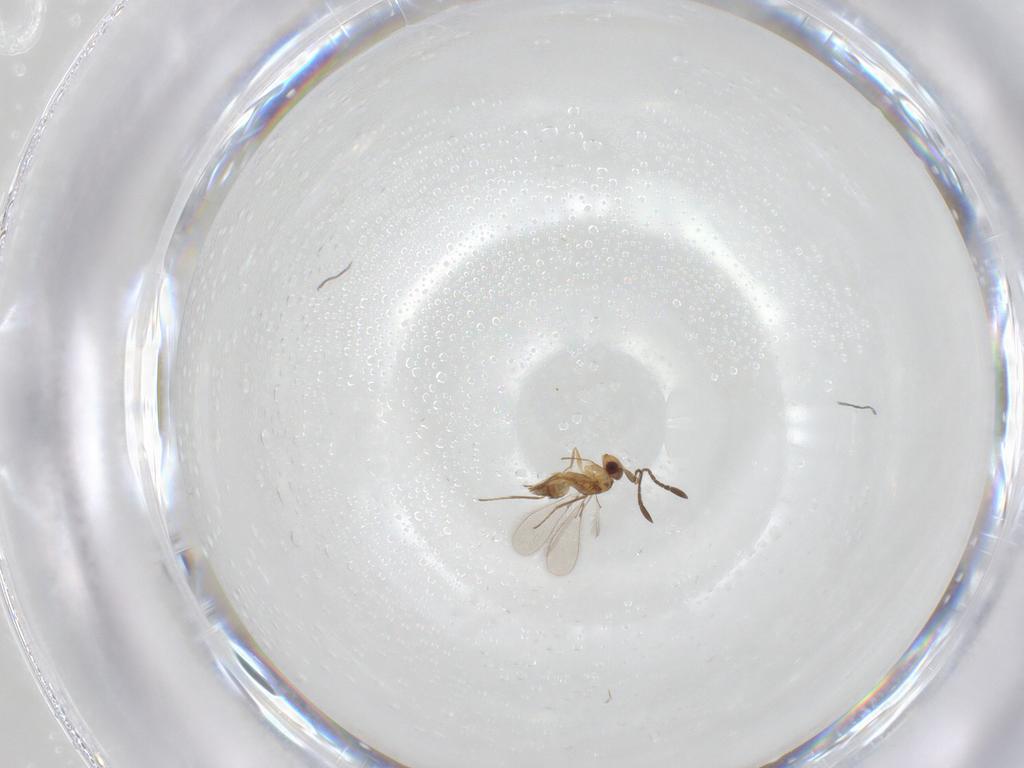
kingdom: Animalia
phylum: Arthropoda
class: Insecta
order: Hymenoptera
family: Mymaridae
